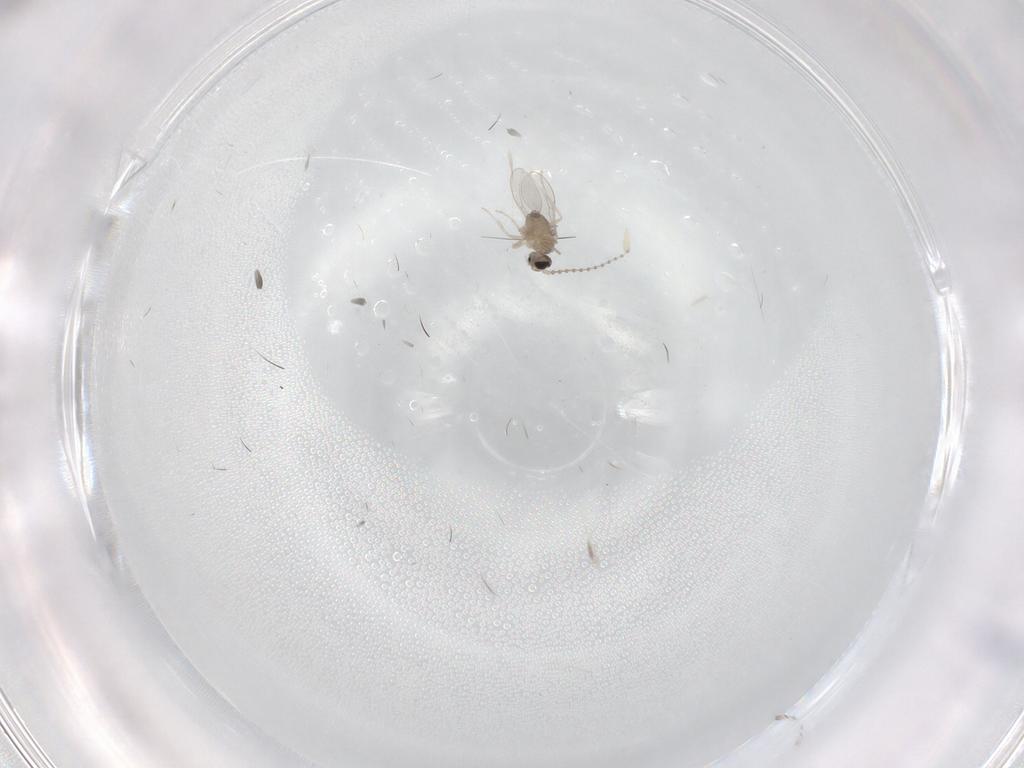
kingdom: Animalia
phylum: Arthropoda
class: Insecta
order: Diptera
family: Cecidomyiidae
